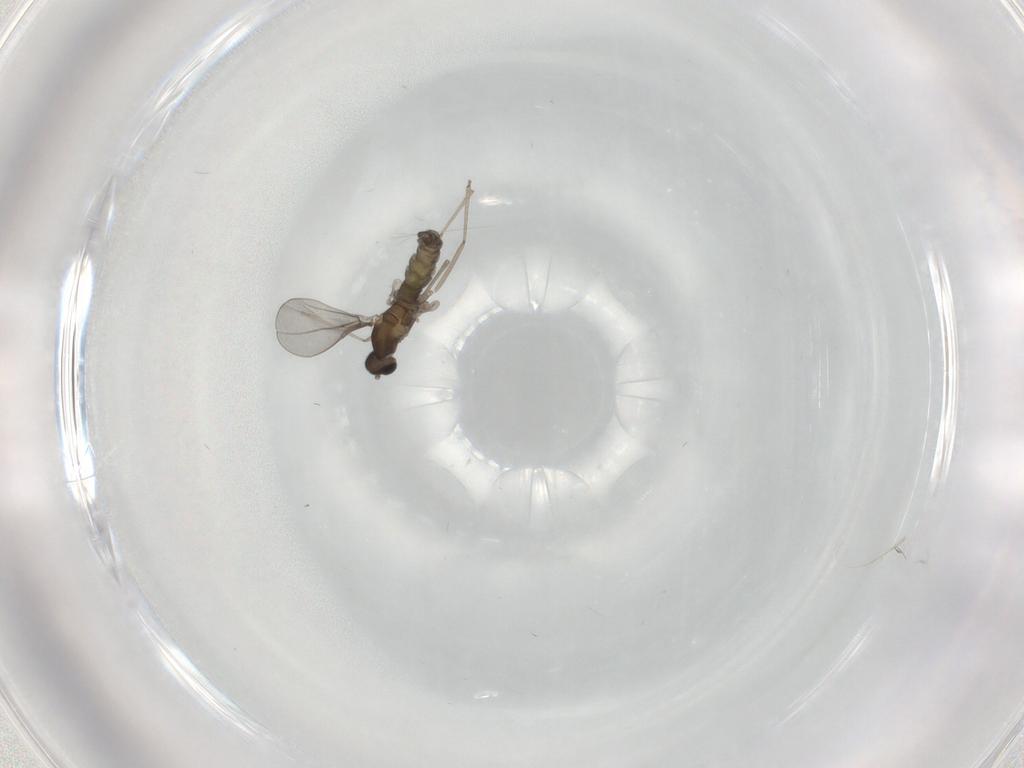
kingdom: Animalia
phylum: Arthropoda
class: Insecta
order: Diptera
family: Cecidomyiidae
